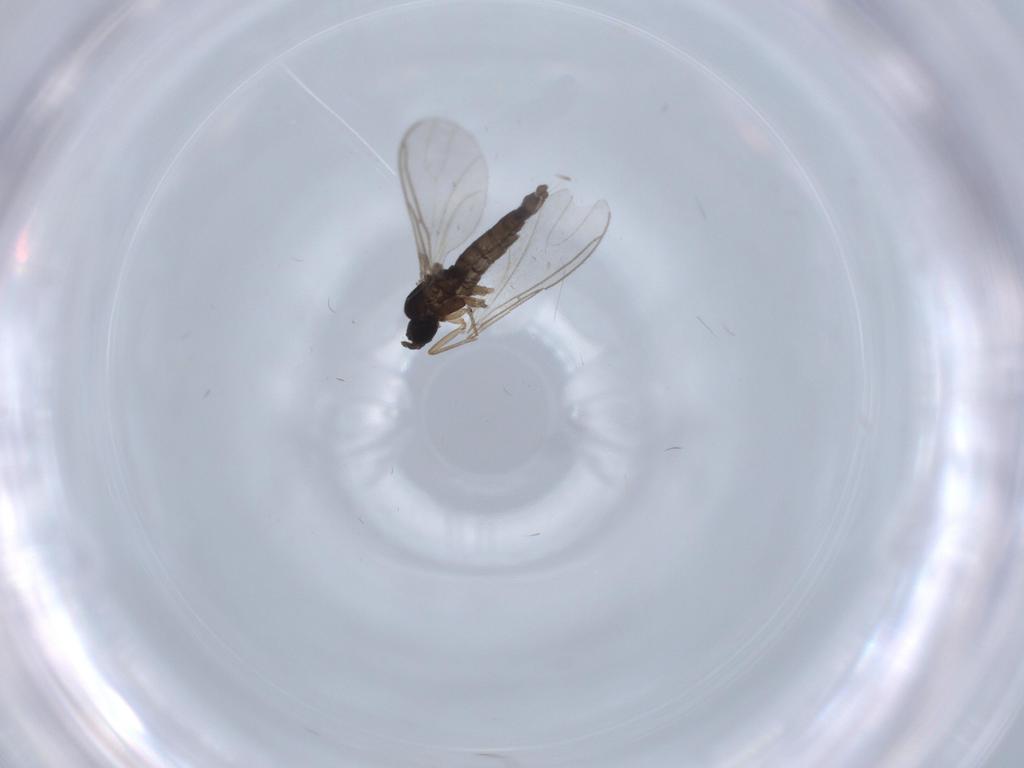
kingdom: Animalia
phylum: Arthropoda
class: Insecta
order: Diptera
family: Sciaridae
